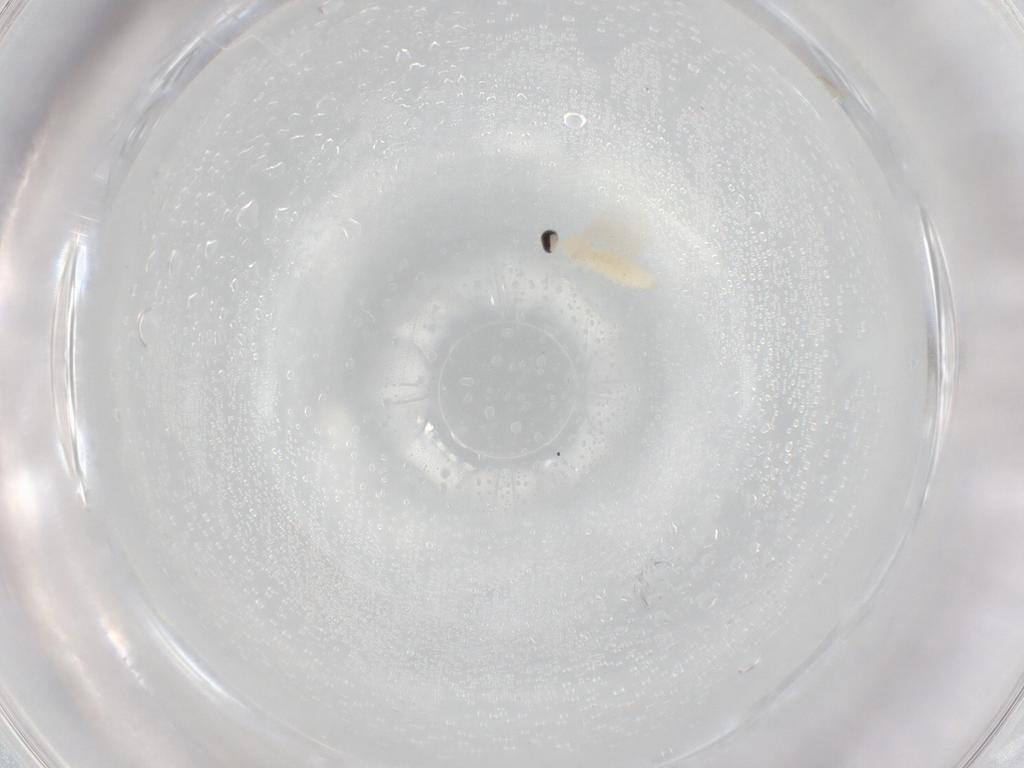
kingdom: Animalia
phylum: Arthropoda
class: Insecta
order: Diptera
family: Cecidomyiidae
